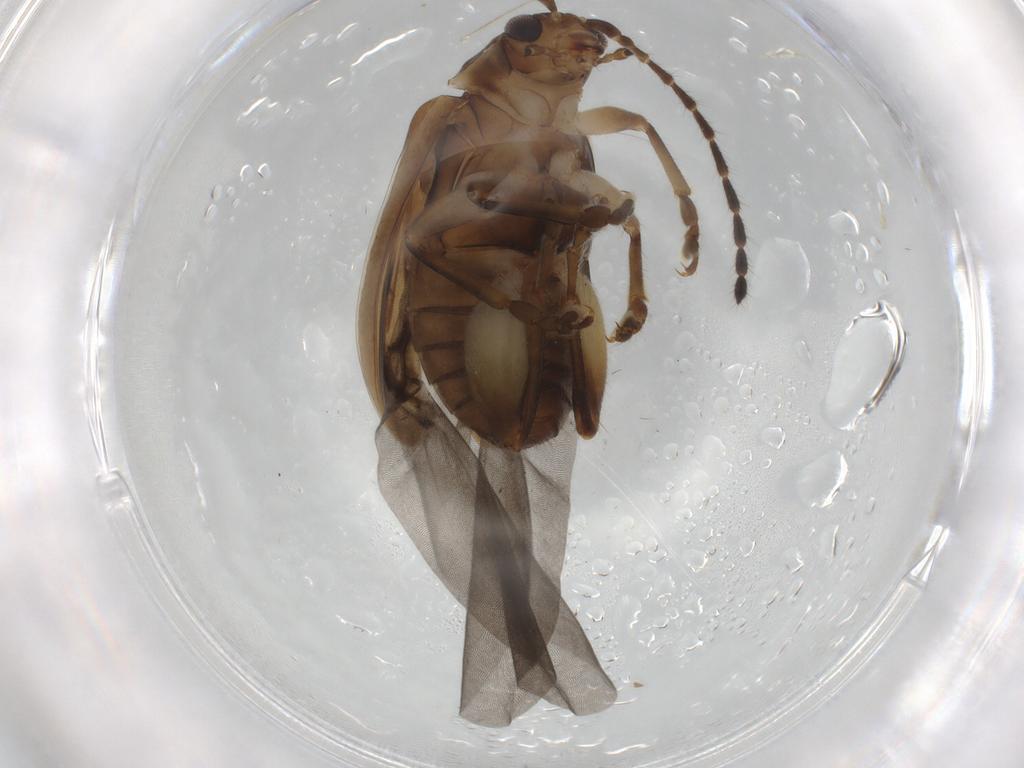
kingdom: Animalia
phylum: Arthropoda
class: Insecta
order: Coleoptera
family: Chrysomelidae
